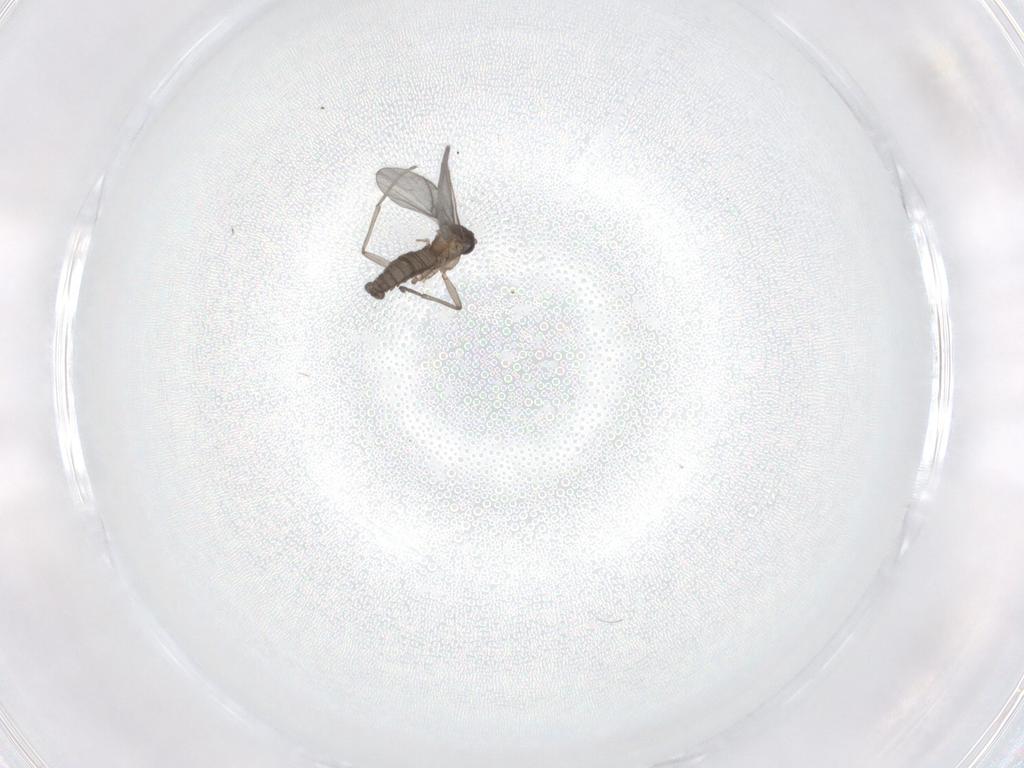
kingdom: Animalia
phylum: Arthropoda
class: Insecta
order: Diptera
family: Sciaridae
